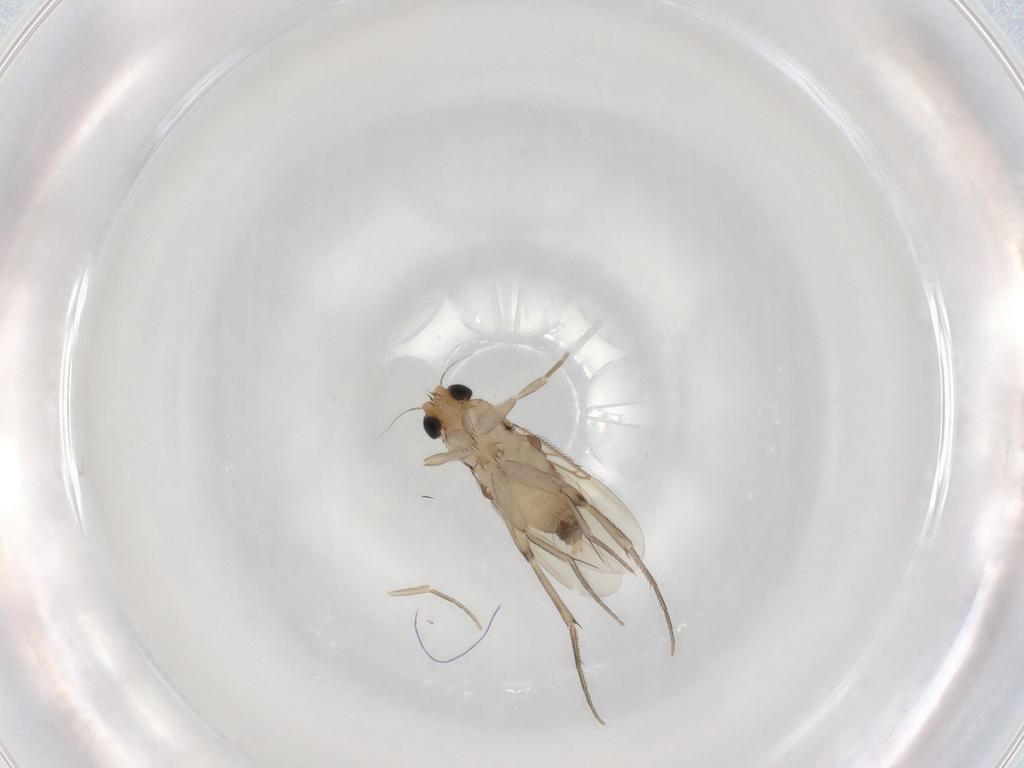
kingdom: Animalia
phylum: Arthropoda
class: Insecta
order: Diptera
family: Phoridae
